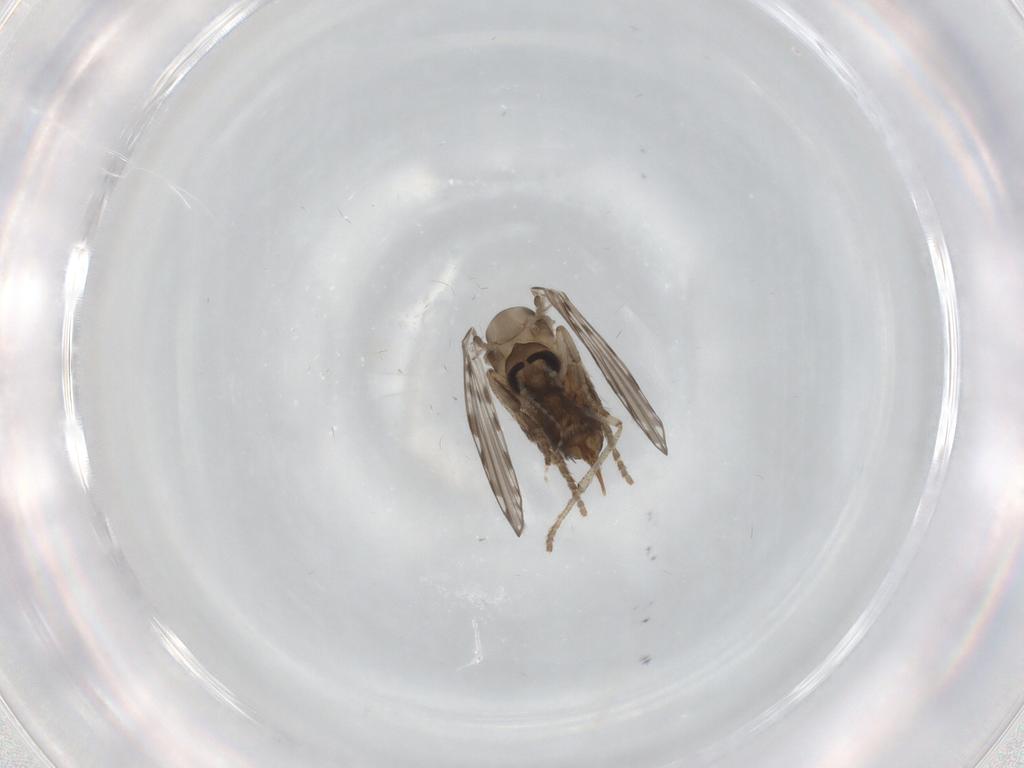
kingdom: Animalia
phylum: Arthropoda
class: Insecta
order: Diptera
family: Psychodidae
